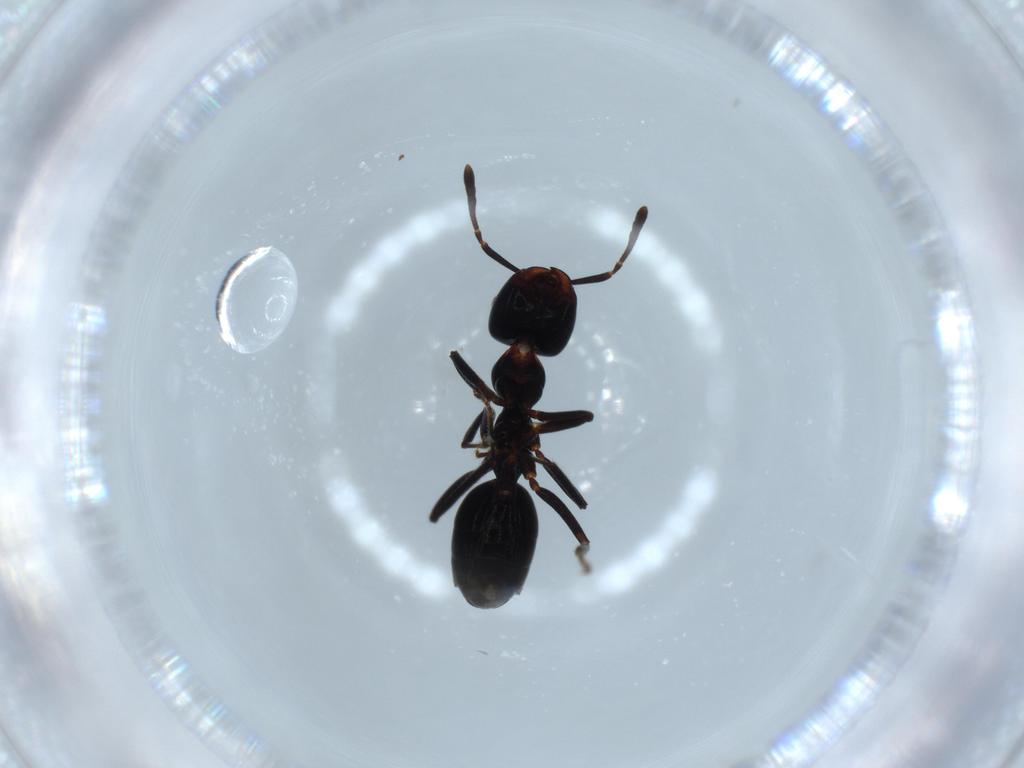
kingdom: Animalia
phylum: Arthropoda
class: Insecta
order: Hymenoptera
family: Formicidae
